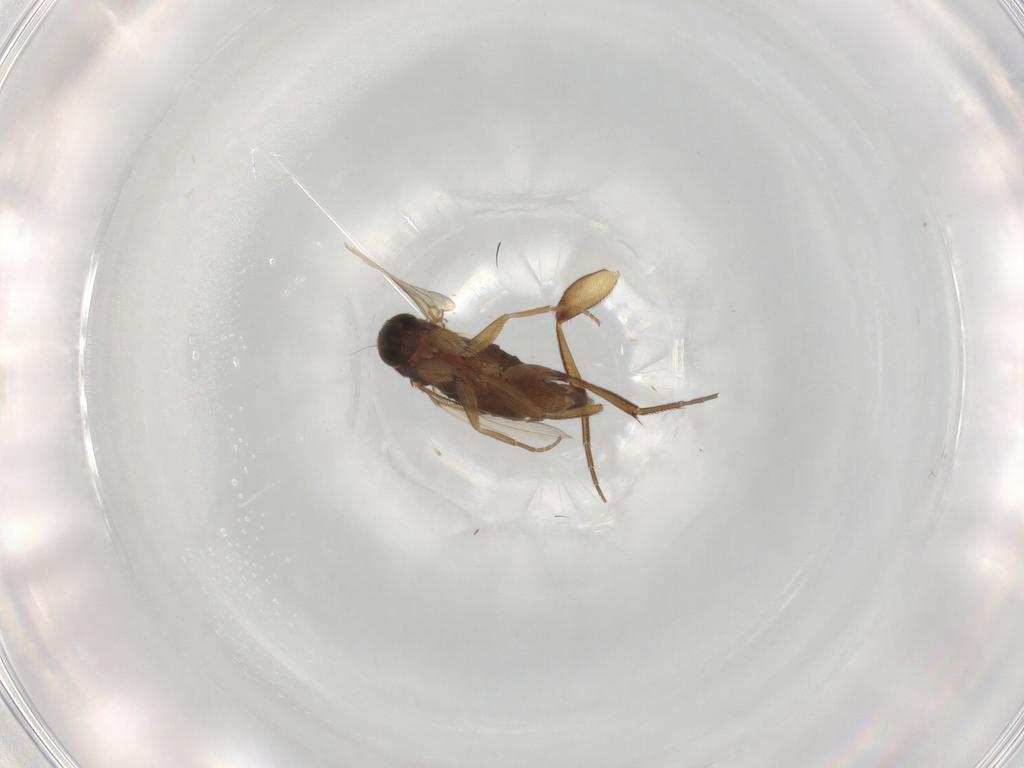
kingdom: Animalia
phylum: Arthropoda
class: Insecta
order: Diptera
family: Phoridae
